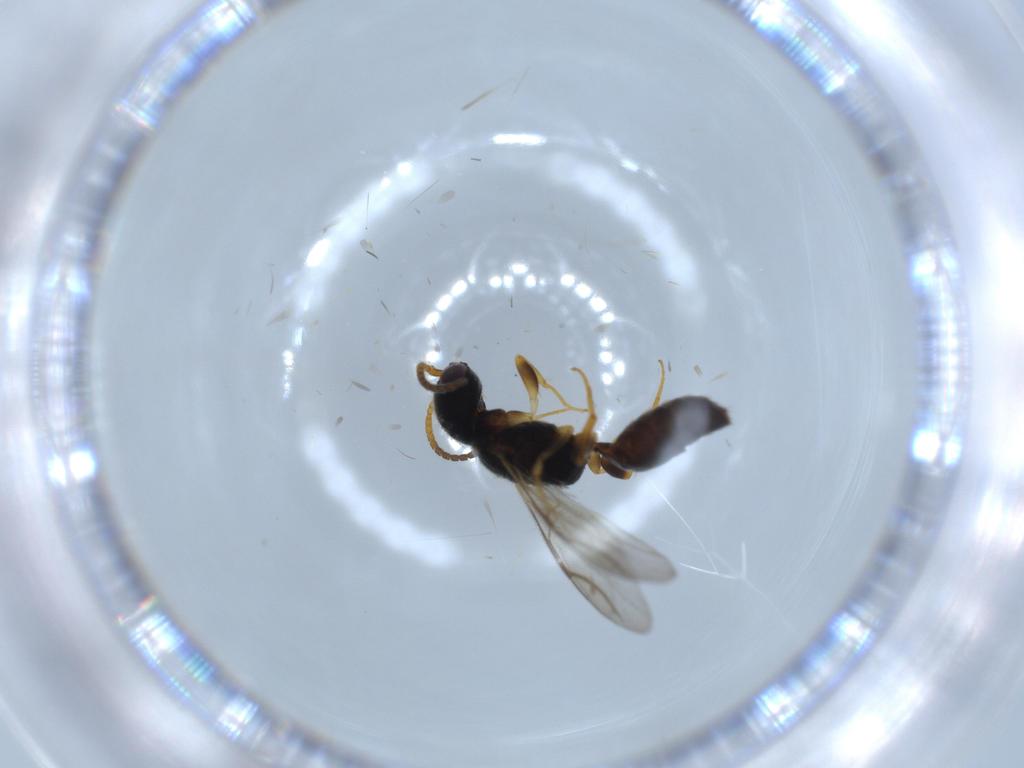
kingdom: Animalia
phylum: Arthropoda
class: Insecta
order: Hymenoptera
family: Bethylidae
